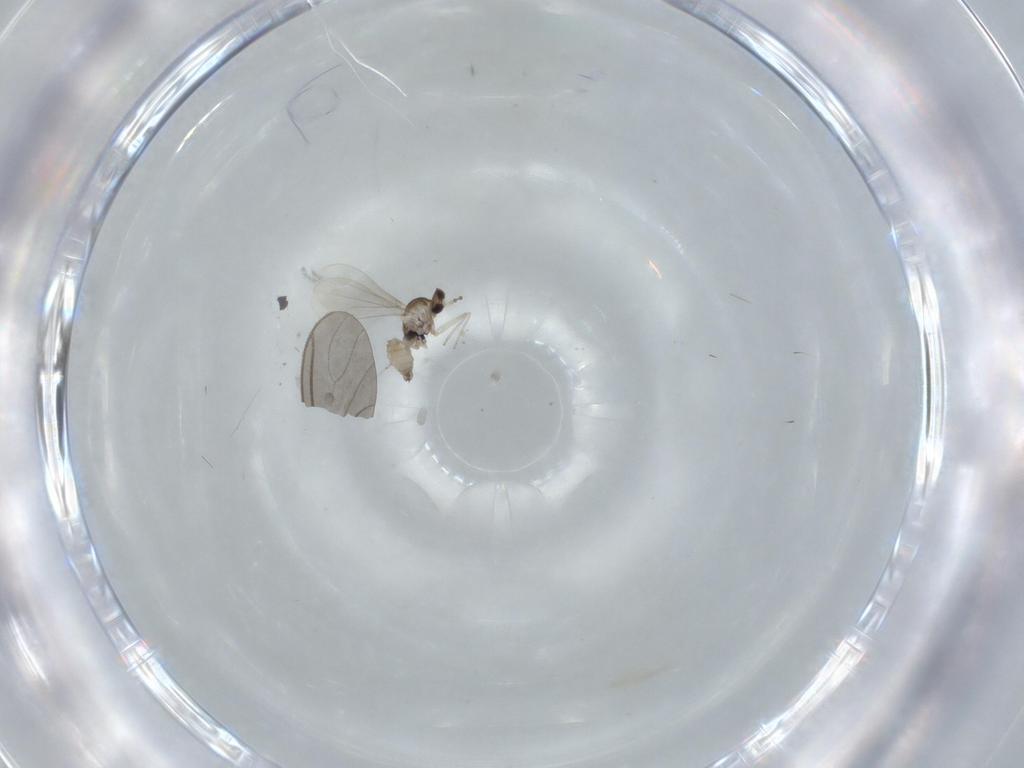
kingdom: Animalia
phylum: Arthropoda
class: Insecta
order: Diptera
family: Cecidomyiidae
